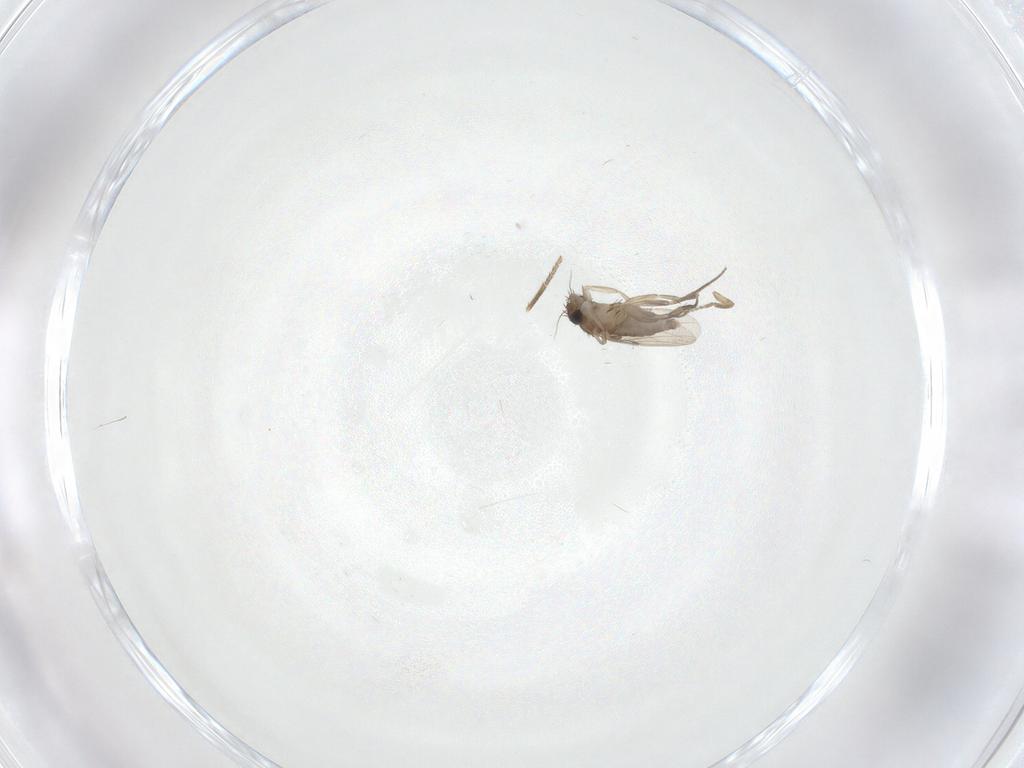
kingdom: Animalia
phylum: Arthropoda
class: Insecta
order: Diptera
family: Phoridae
